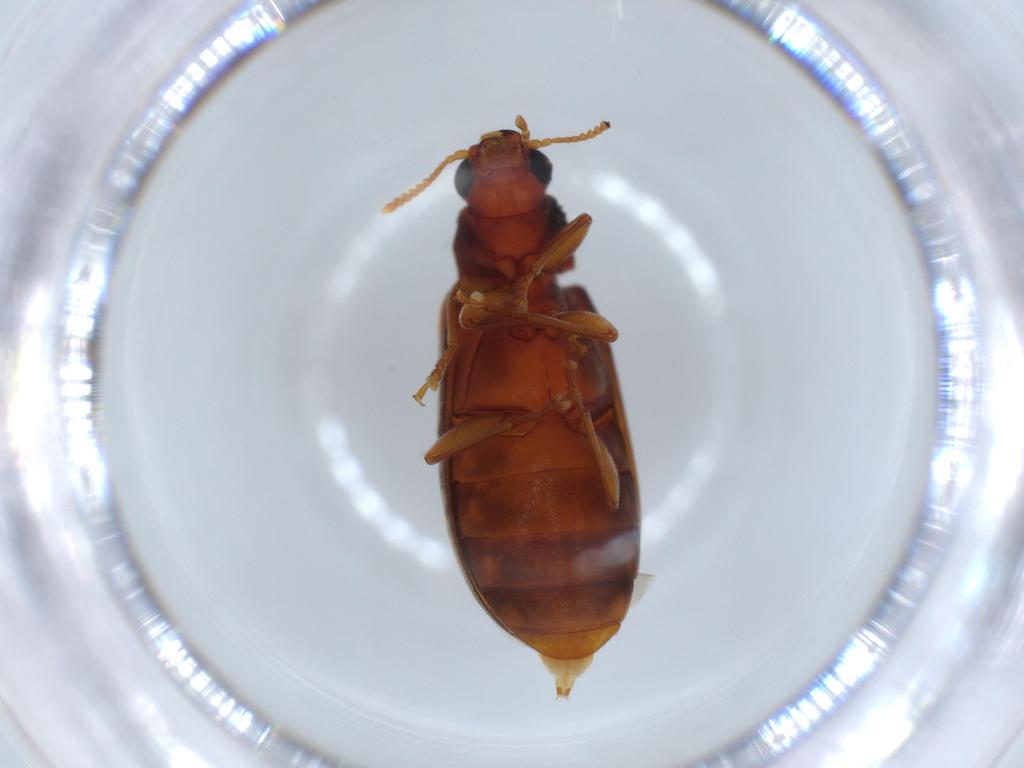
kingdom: Animalia
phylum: Arthropoda
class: Insecta
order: Coleoptera
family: Mycteridae
